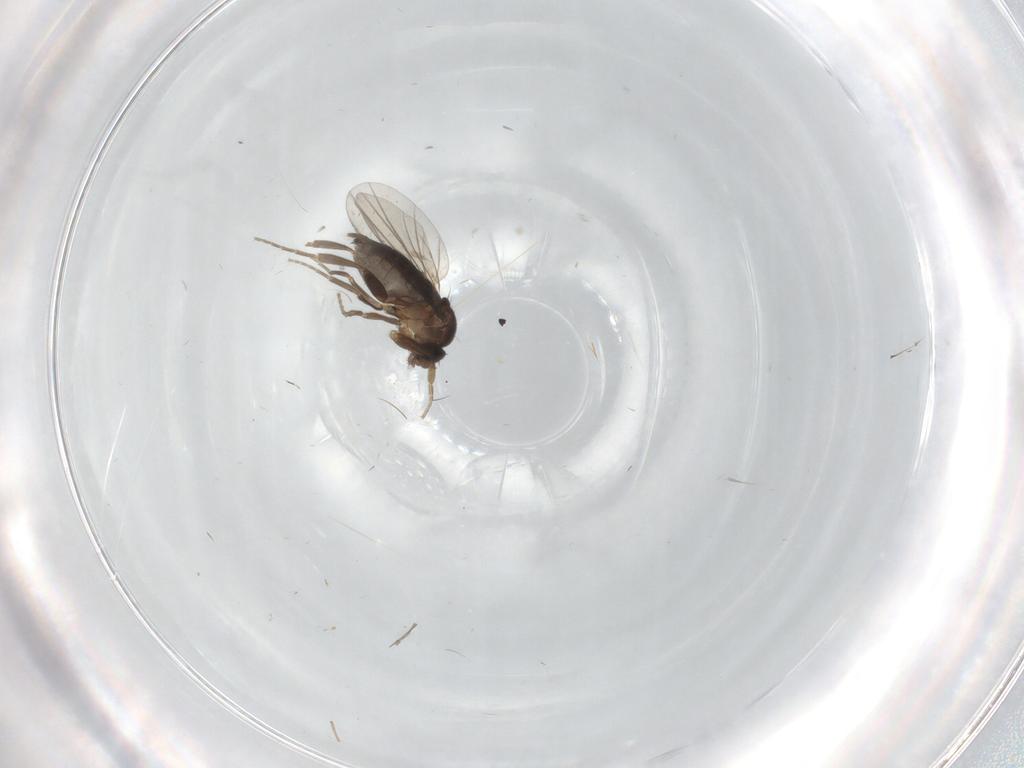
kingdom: Animalia
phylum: Arthropoda
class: Insecta
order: Diptera
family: Phoridae
